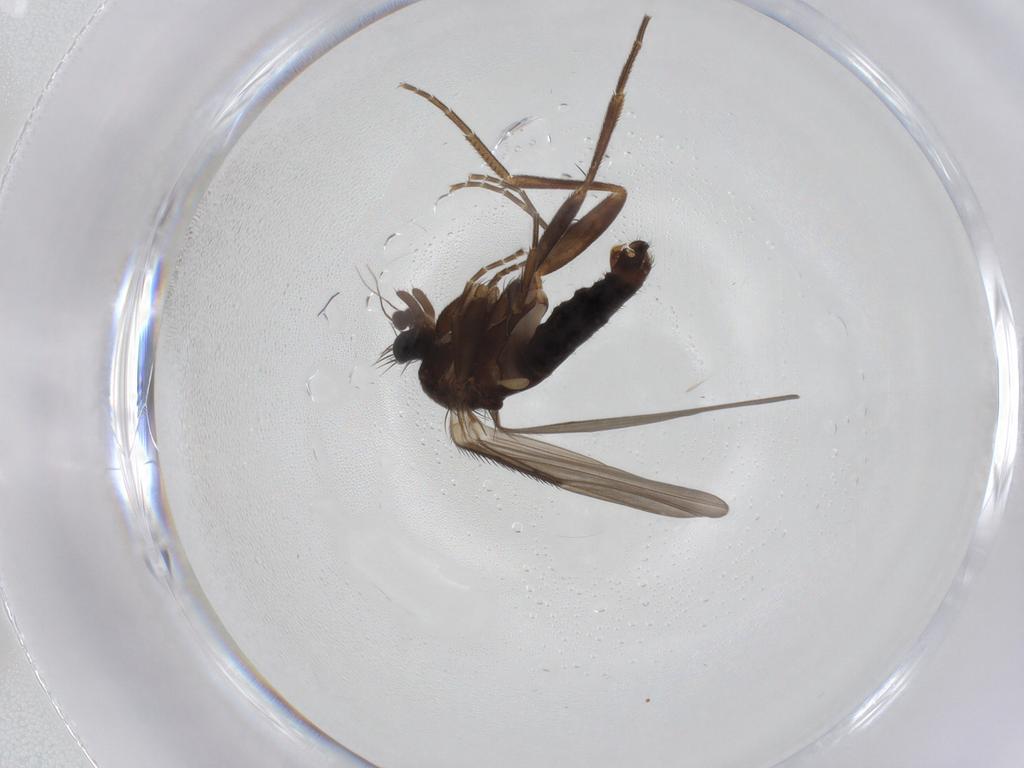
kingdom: Animalia
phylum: Arthropoda
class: Insecta
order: Diptera
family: Phoridae
